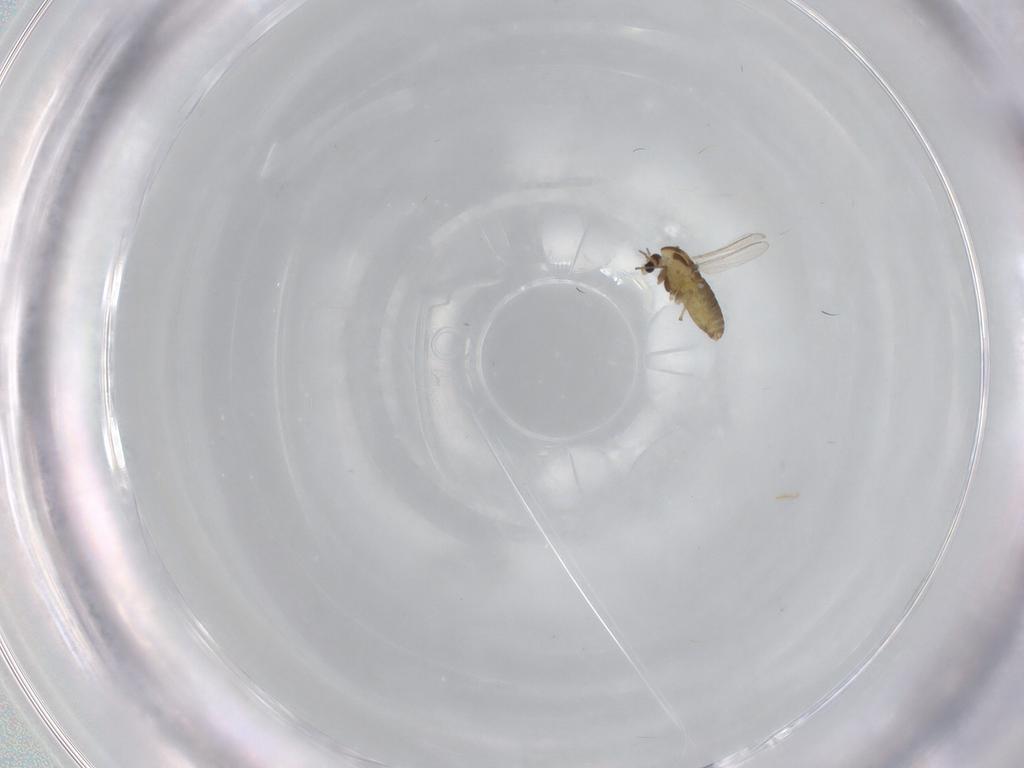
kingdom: Animalia
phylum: Arthropoda
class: Insecta
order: Diptera
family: Chironomidae
